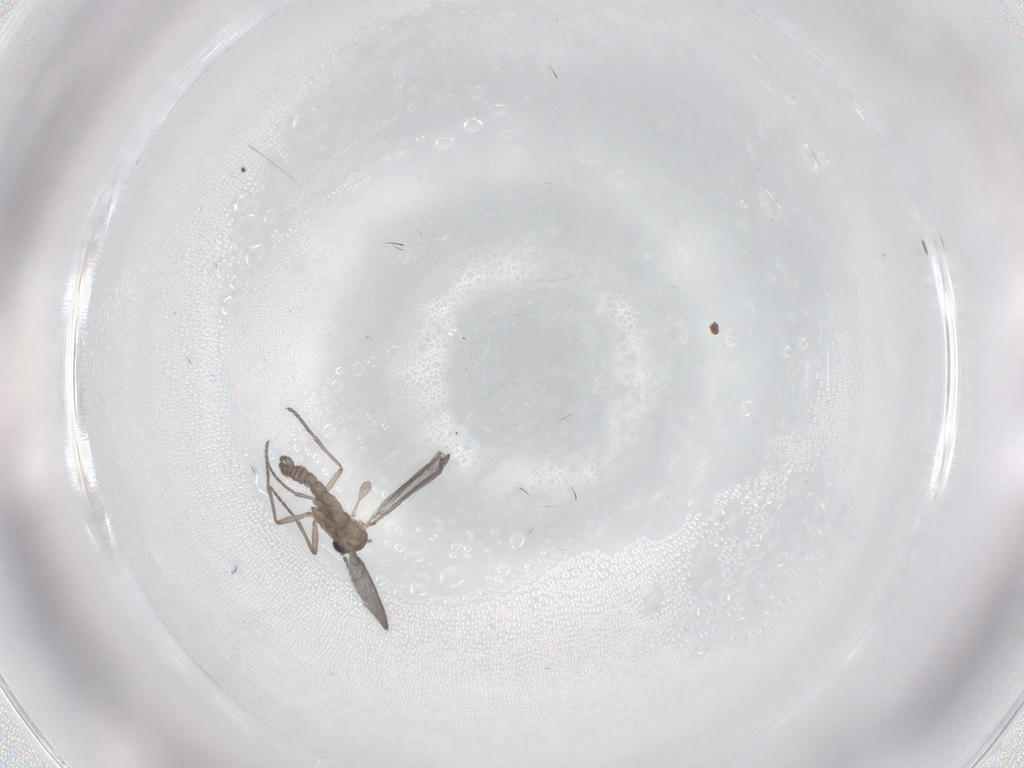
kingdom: Animalia
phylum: Arthropoda
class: Insecta
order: Diptera
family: Sciaridae
